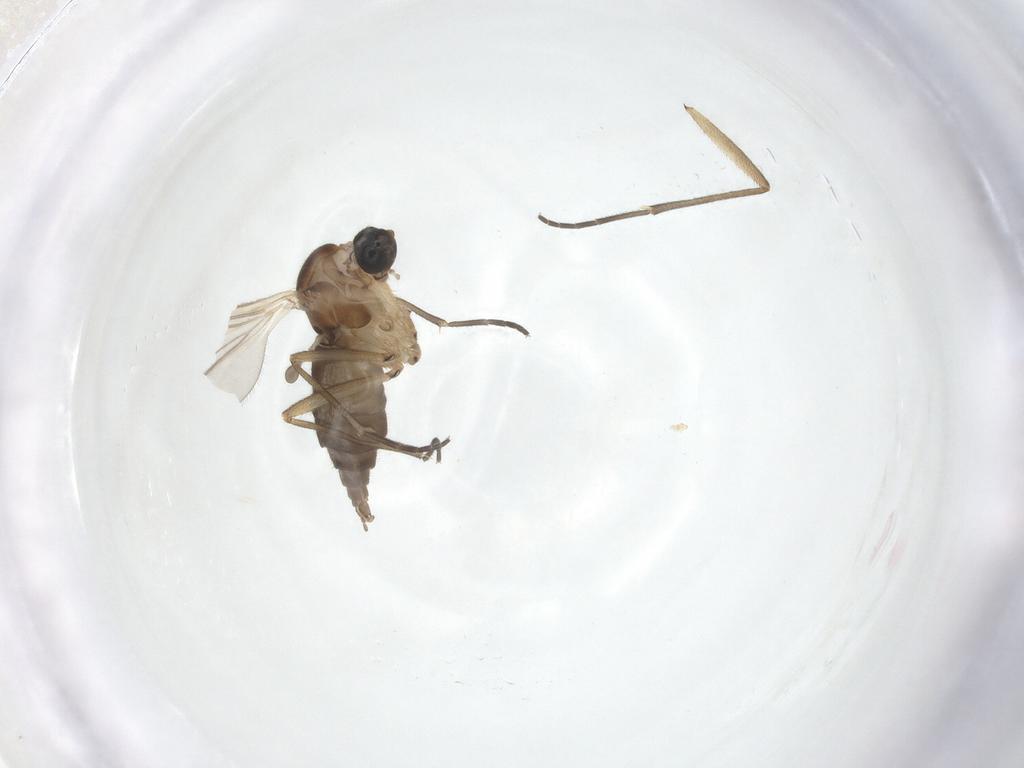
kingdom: Animalia
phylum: Arthropoda
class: Insecta
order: Diptera
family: Sciaridae
